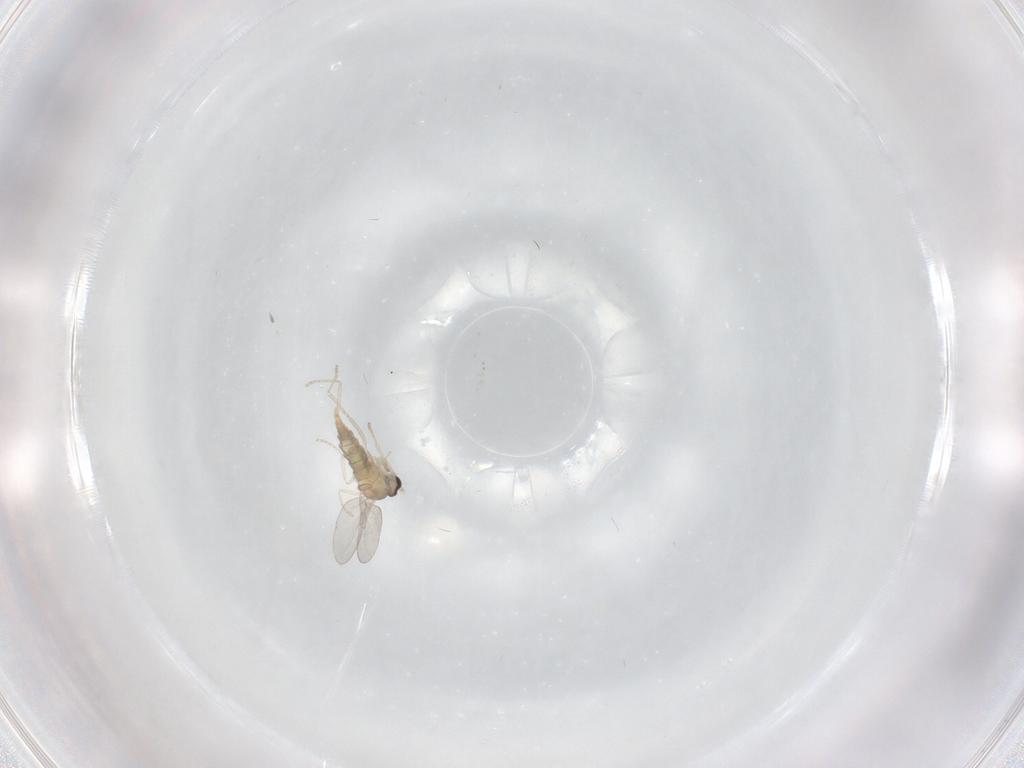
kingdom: Animalia
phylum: Arthropoda
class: Insecta
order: Diptera
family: Cecidomyiidae
